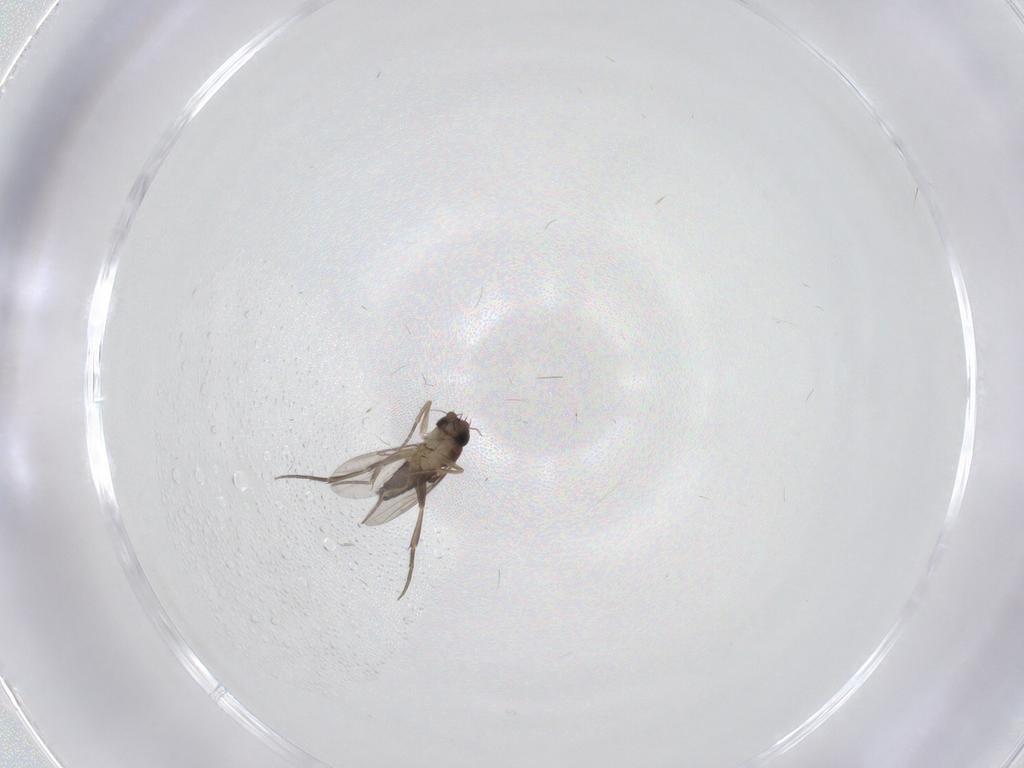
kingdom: Animalia
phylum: Arthropoda
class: Insecta
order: Diptera
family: Phoridae
